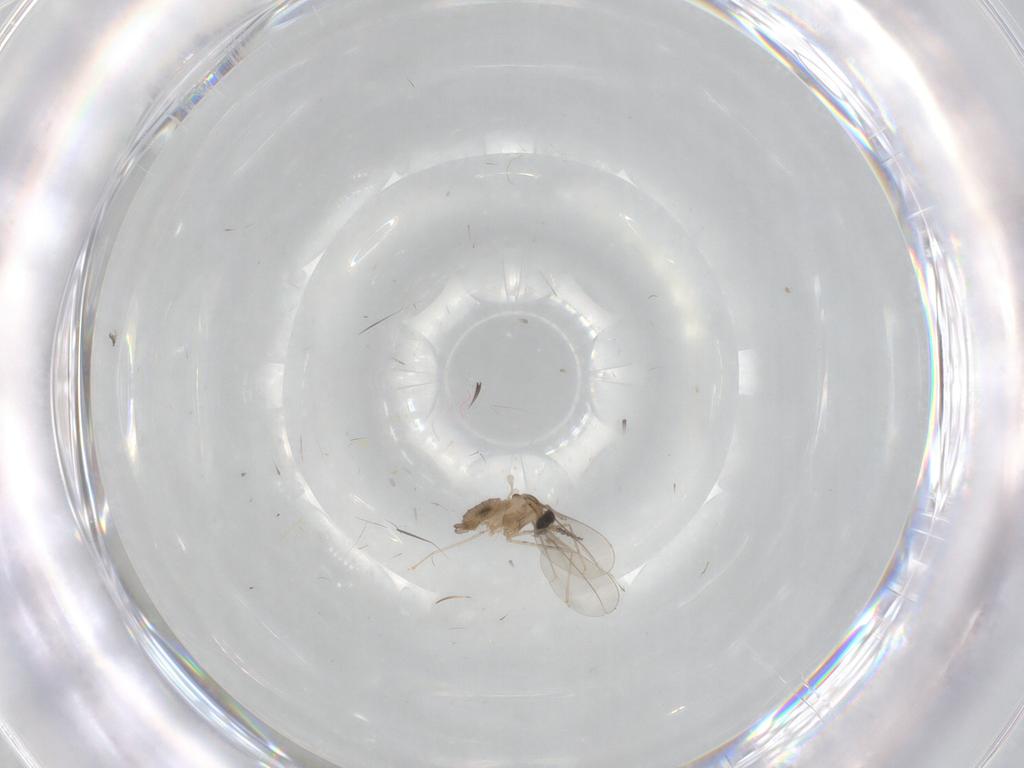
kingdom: Animalia
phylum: Arthropoda
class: Insecta
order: Diptera
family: Cecidomyiidae
